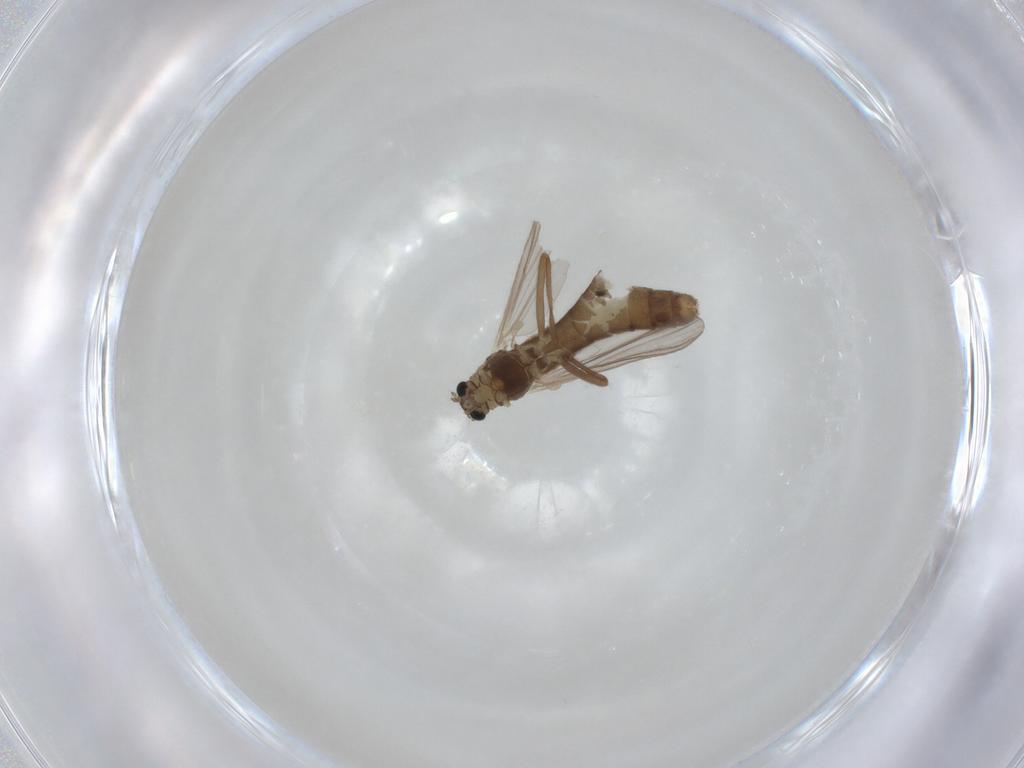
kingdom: Animalia
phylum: Arthropoda
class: Insecta
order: Diptera
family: Chironomidae
